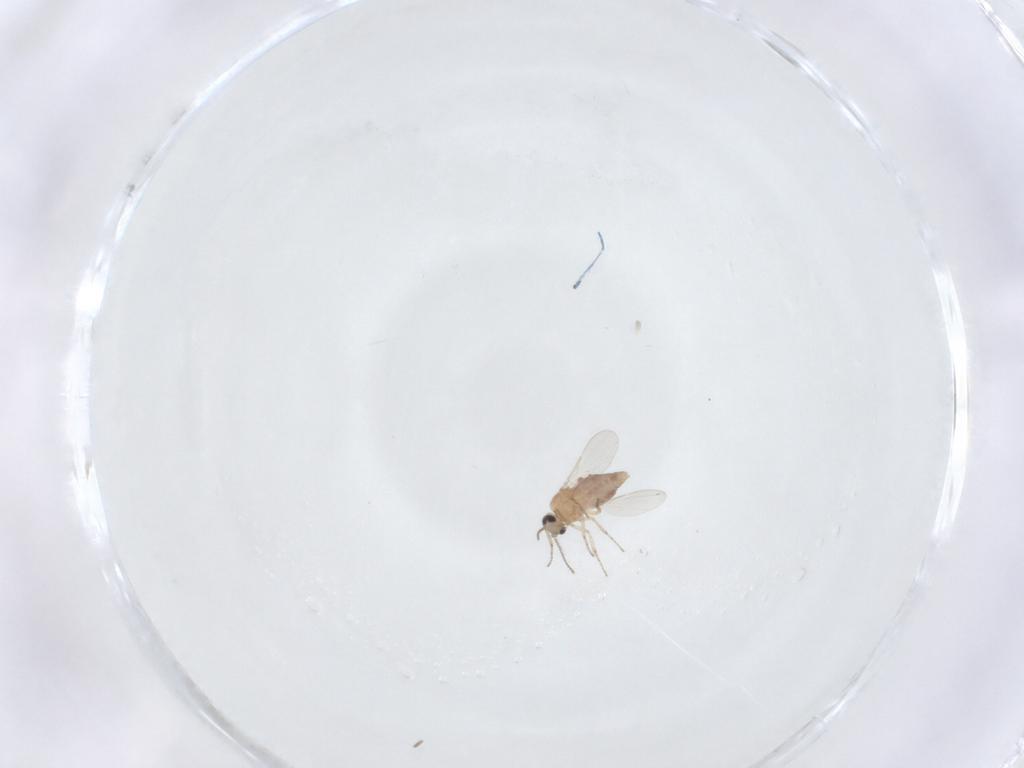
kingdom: Animalia
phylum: Arthropoda
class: Insecta
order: Diptera
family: Ceratopogonidae
